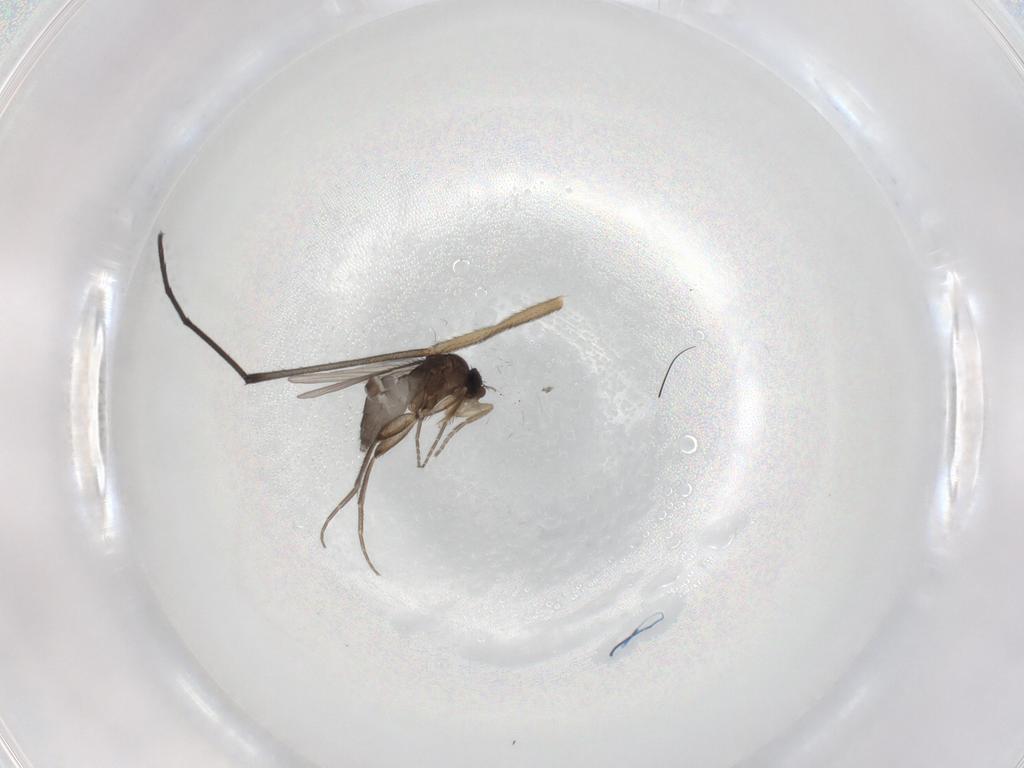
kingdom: Animalia
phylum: Arthropoda
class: Insecta
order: Diptera
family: Phoridae
